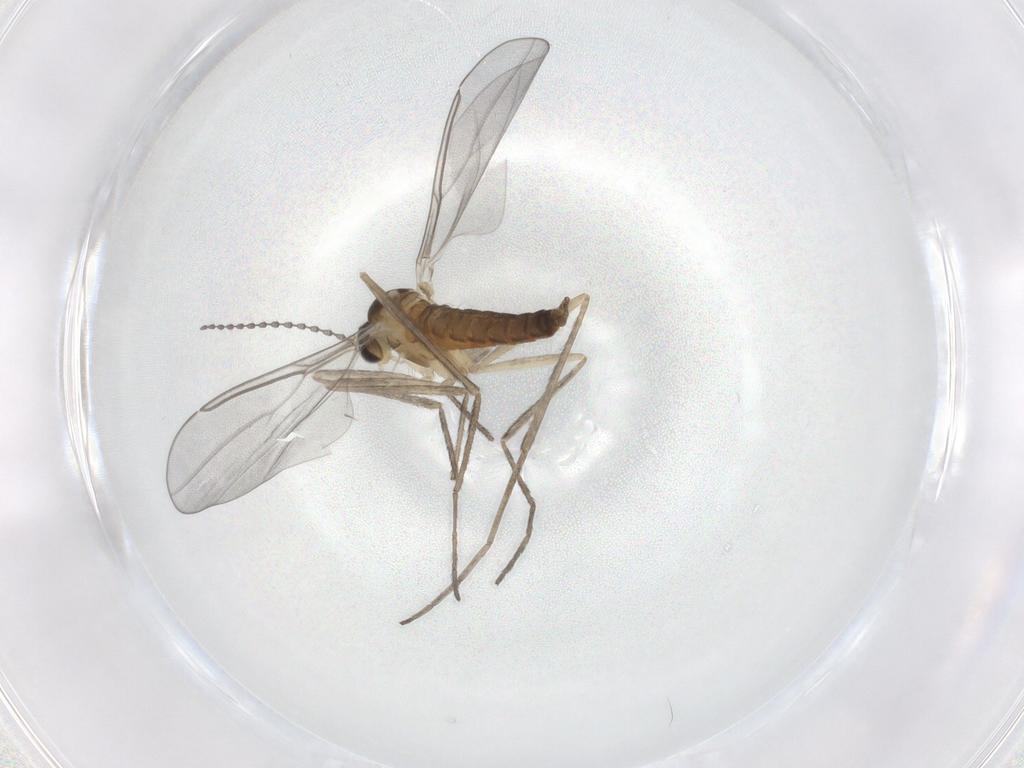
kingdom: Animalia
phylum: Arthropoda
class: Insecta
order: Diptera
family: Cecidomyiidae
